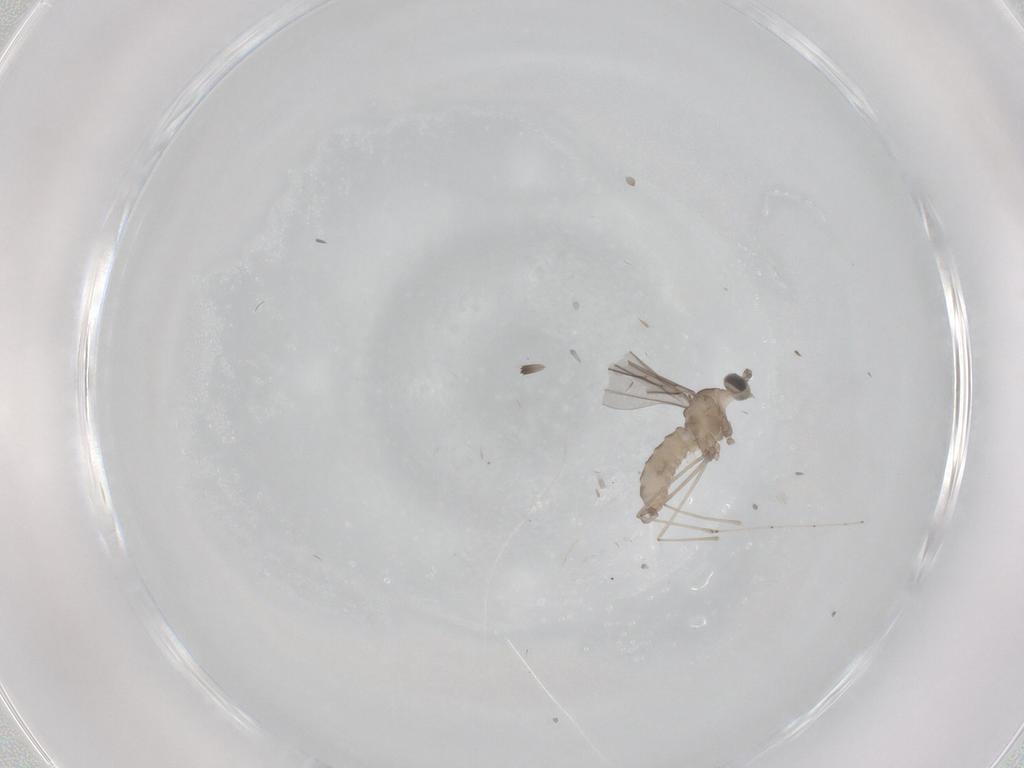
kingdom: Animalia
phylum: Arthropoda
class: Insecta
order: Diptera
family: Cecidomyiidae
